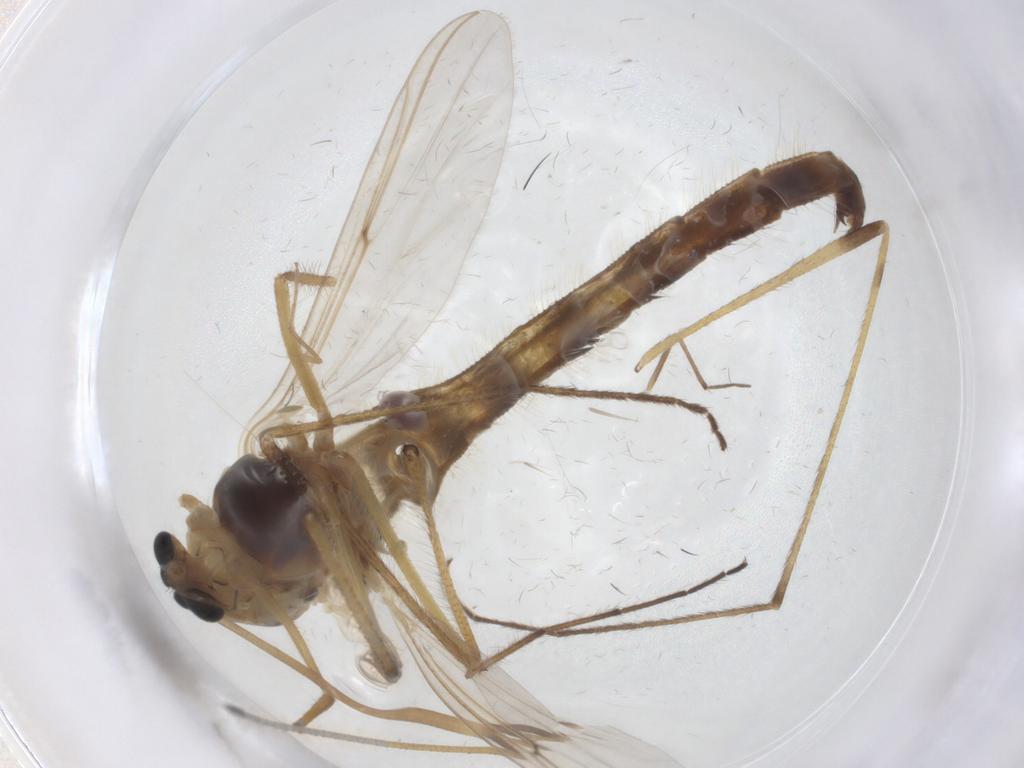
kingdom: Animalia
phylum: Arthropoda
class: Insecta
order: Diptera
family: Chironomidae
